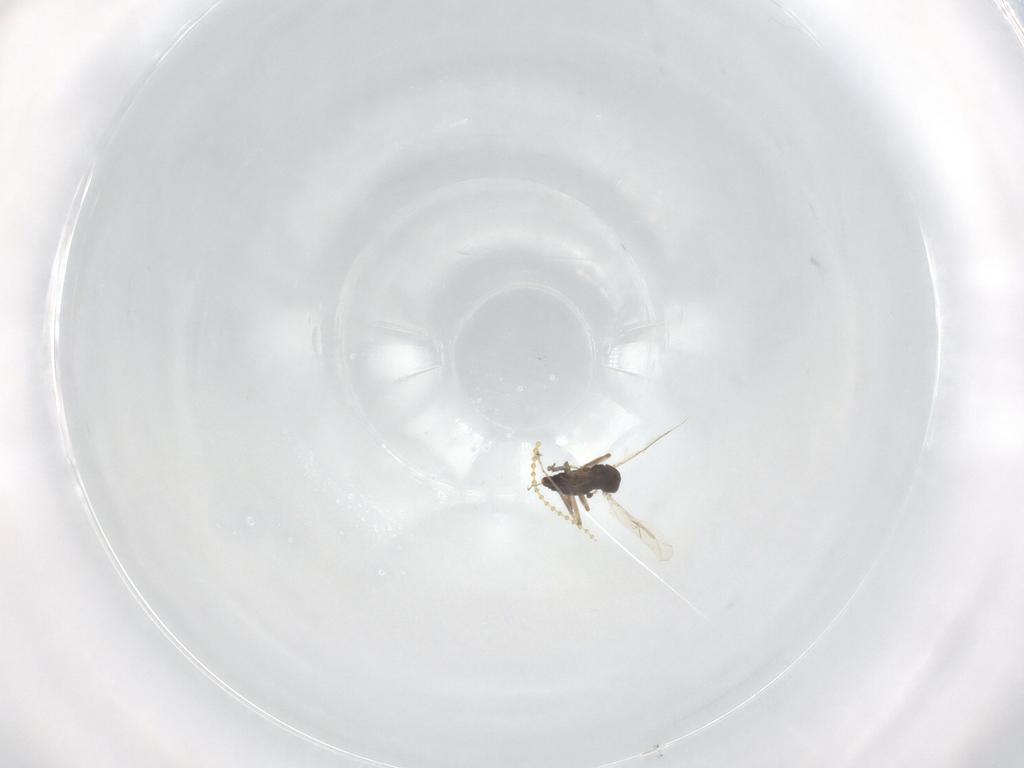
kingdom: Animalia
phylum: Arthropoda
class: Insecta
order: Diptera
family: Ceratopogonidae
